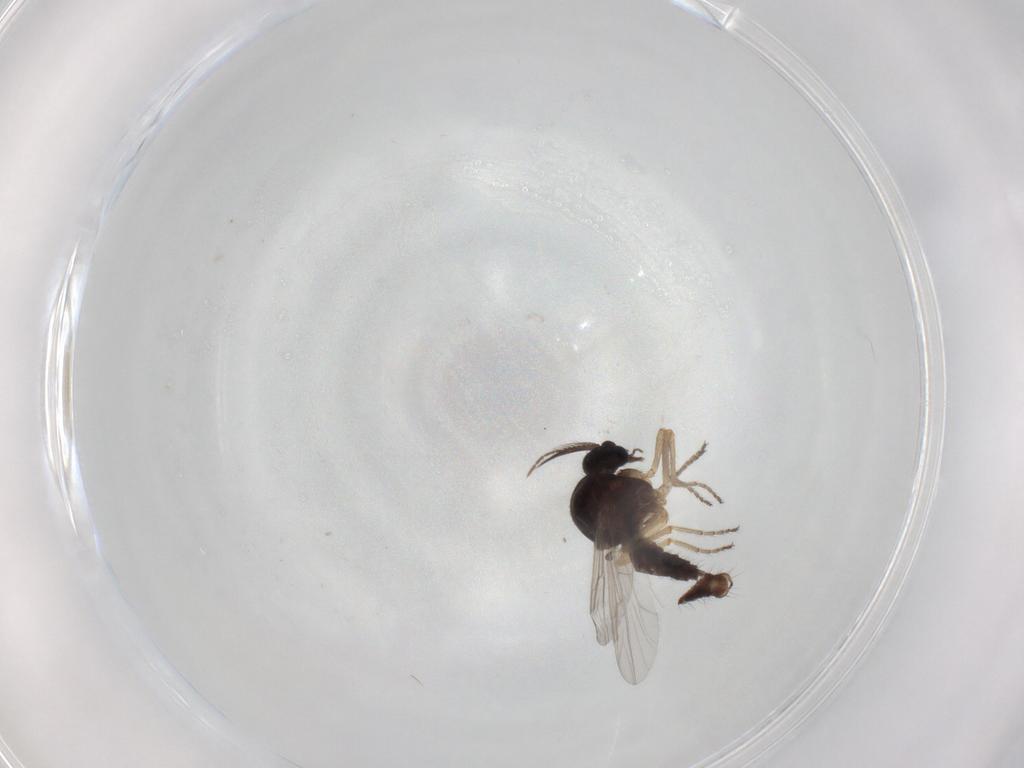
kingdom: Animalia
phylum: Arthropoda
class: Insecta
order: Diptera
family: Ceratopogonidae
